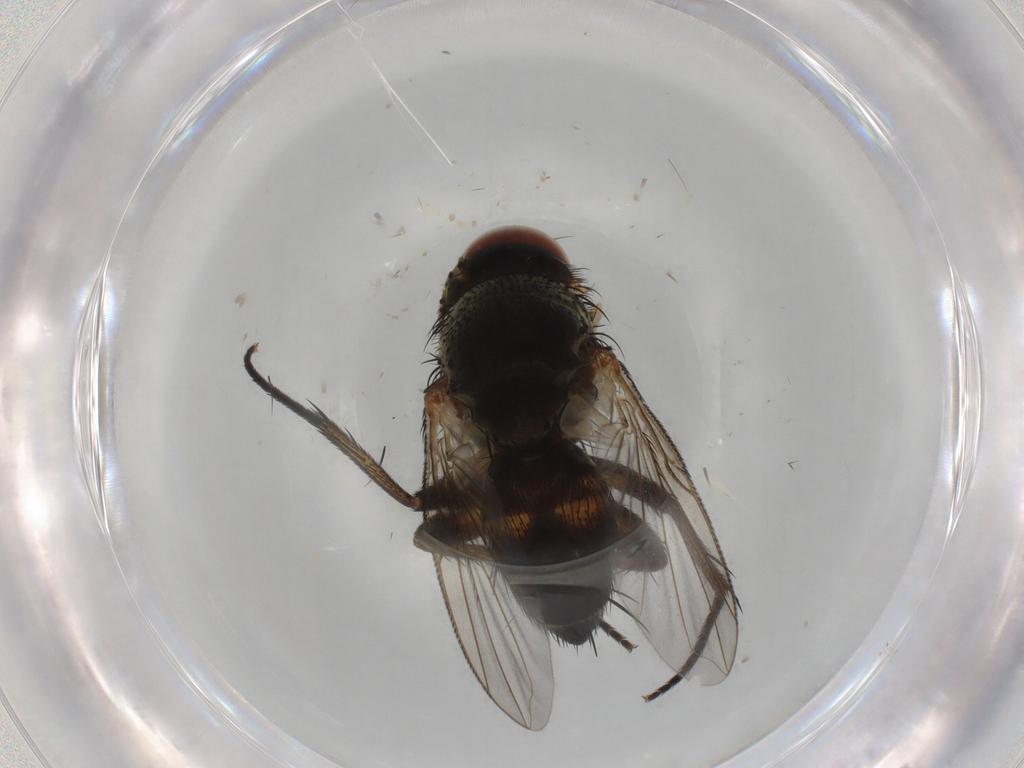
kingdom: Animalia
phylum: Arthropoda
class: Insecta
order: Diptera
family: Tachinidae
